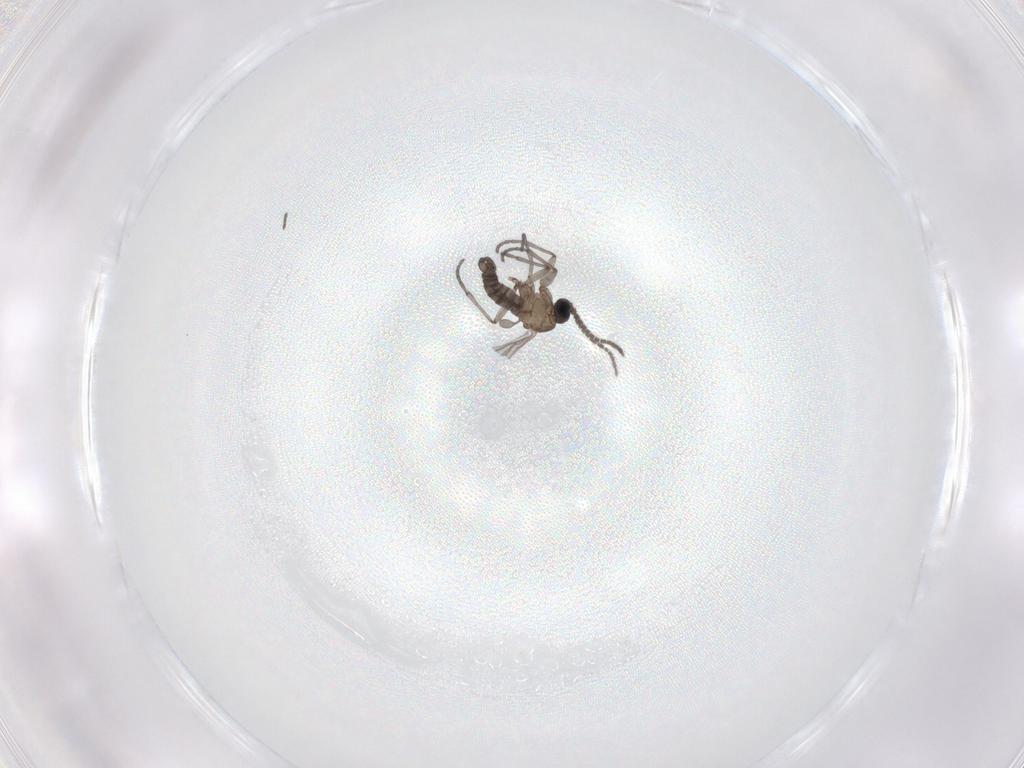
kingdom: Animalia
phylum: Arthropoda
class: Insecta
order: Diptera
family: Sciaridae
